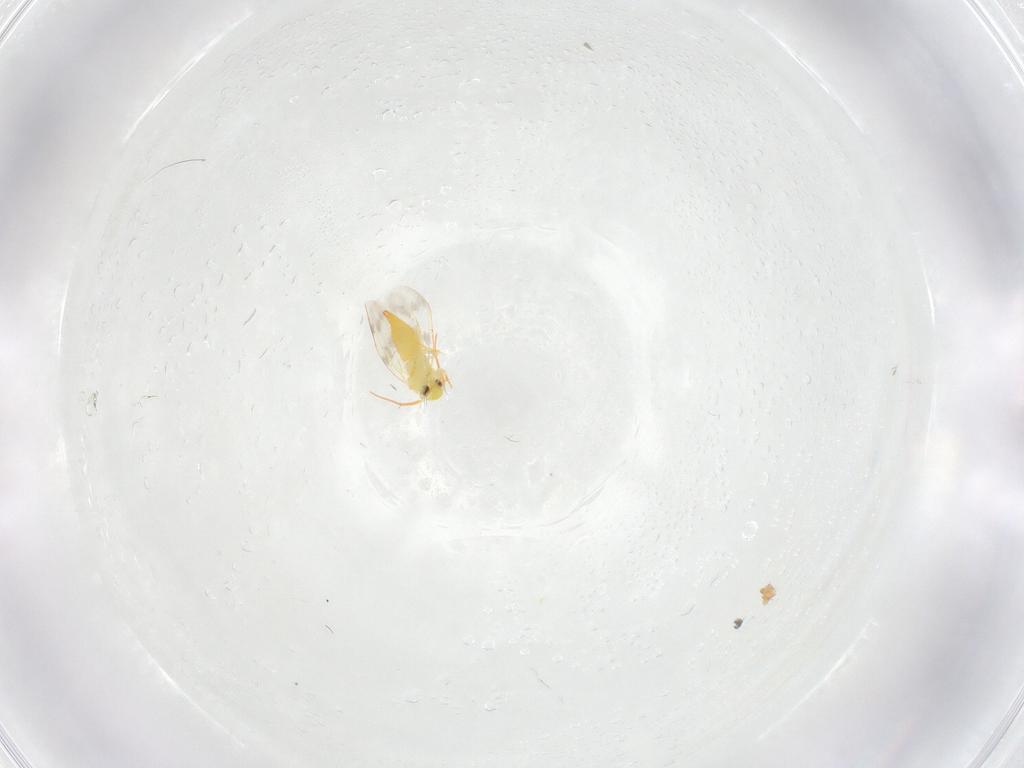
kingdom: Animalia
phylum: Arthropoda
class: Insecta
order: Hemiptera
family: Aleyrodidae
